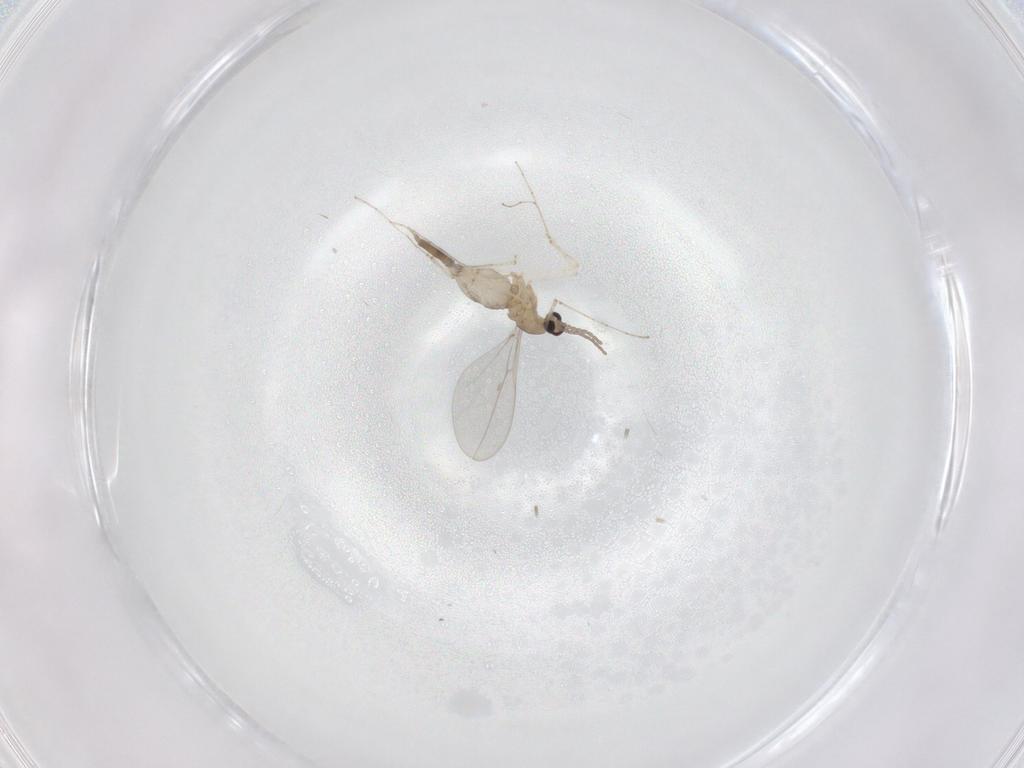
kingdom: Animalia
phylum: Arthropoda
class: Insecta
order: Diptera
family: Cecidomyiidae
